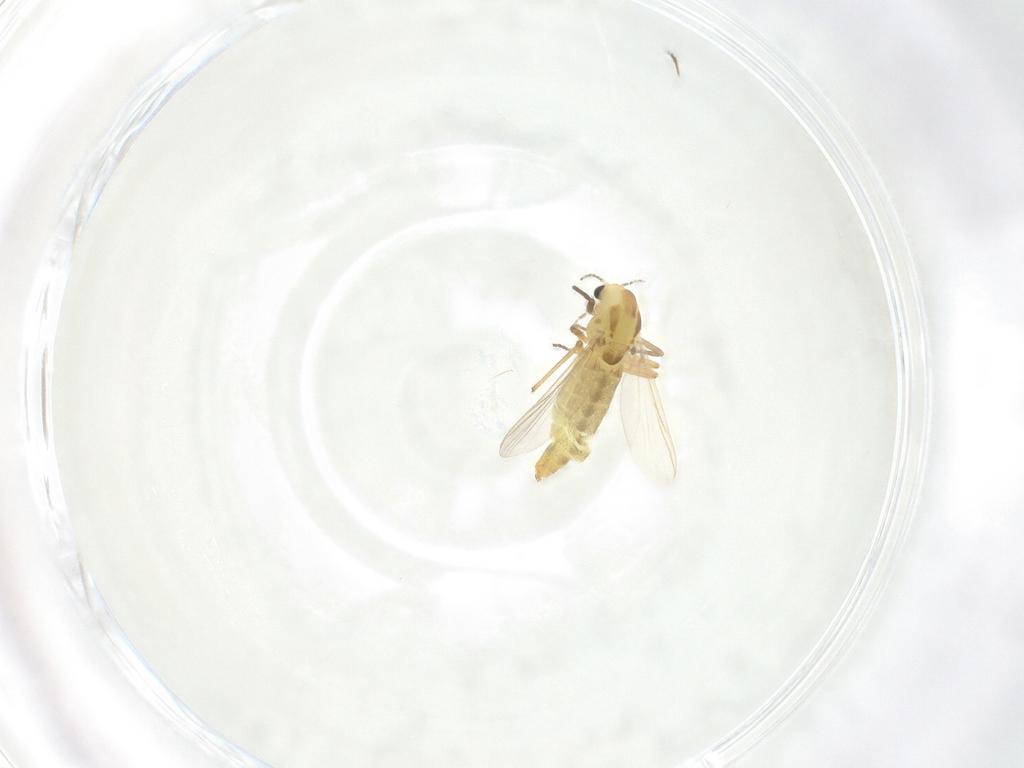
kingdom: Animalia
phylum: Arthropoda
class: Insecta
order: Diptera
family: Chironomidae
